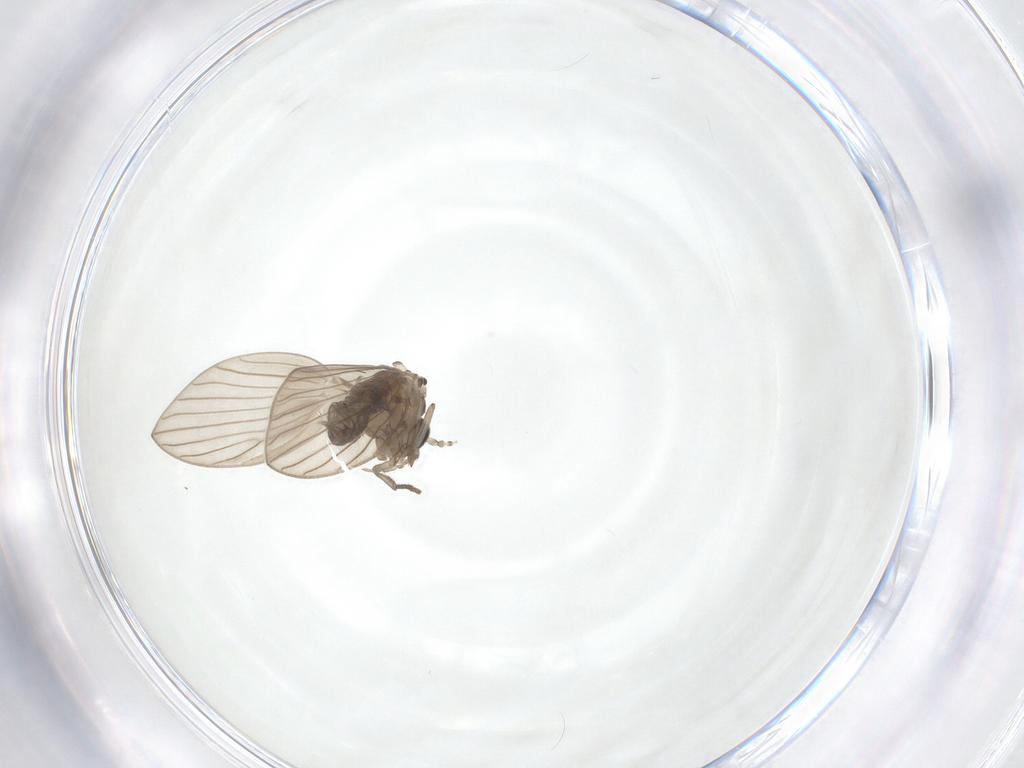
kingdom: Animalia
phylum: Arthropoda
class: Insecta
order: Diptera
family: Psychodidae
